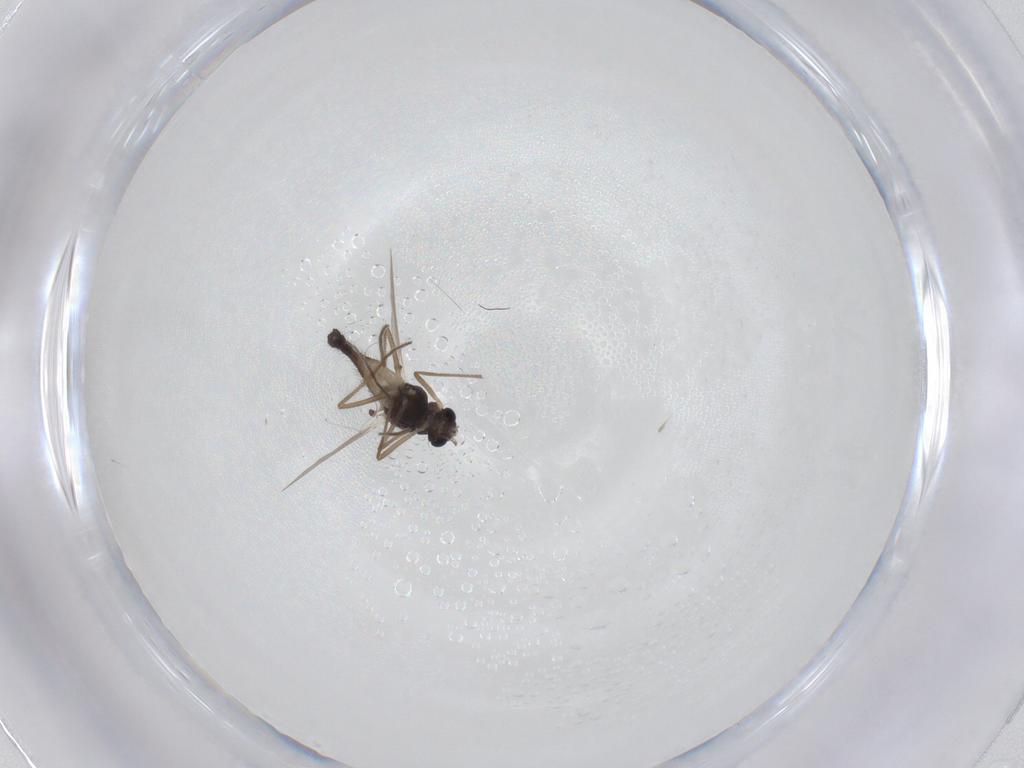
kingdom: Animalia
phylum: Arthropoda
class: Insecta
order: Diptera
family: Chironomidae
